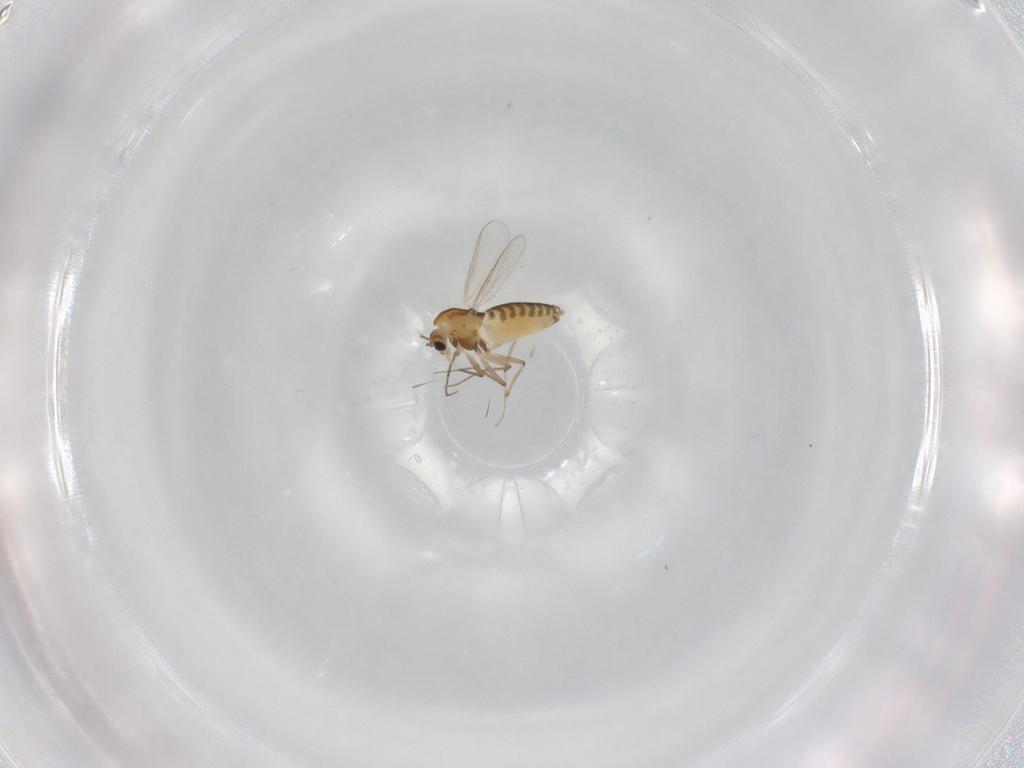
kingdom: Animalia
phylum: Arthropoda
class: Insecta
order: Diptera
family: Chironomidae
